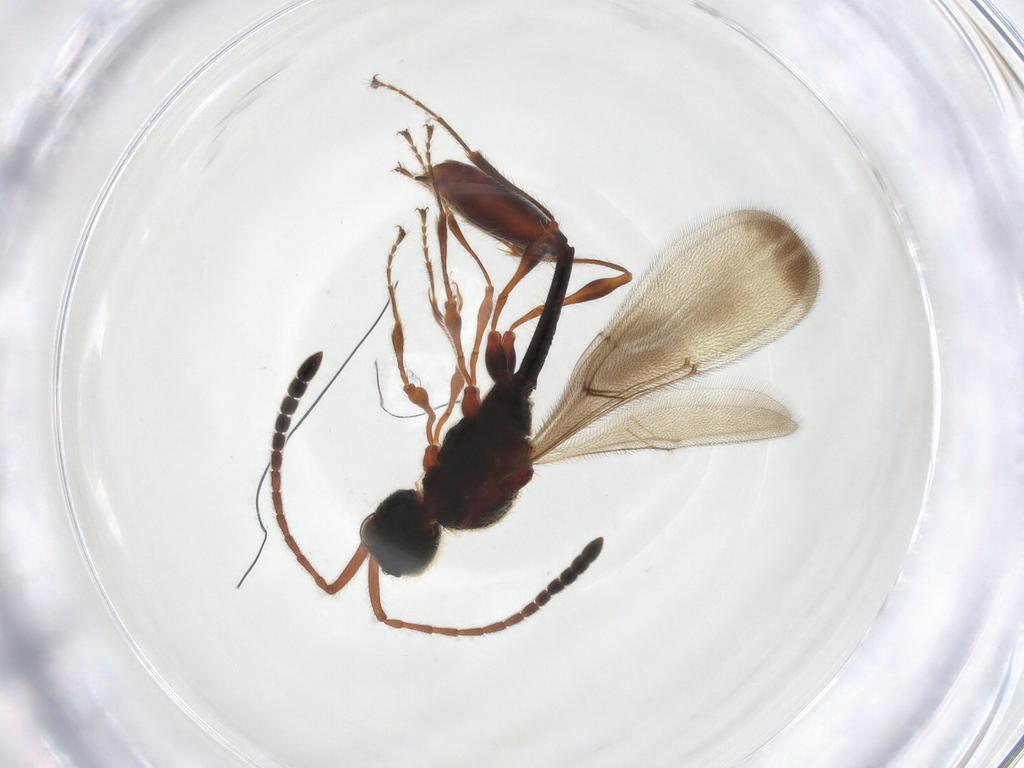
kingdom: Animalia
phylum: Arthropoda
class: Insecta
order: Hymenoptera
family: Diapriidae
